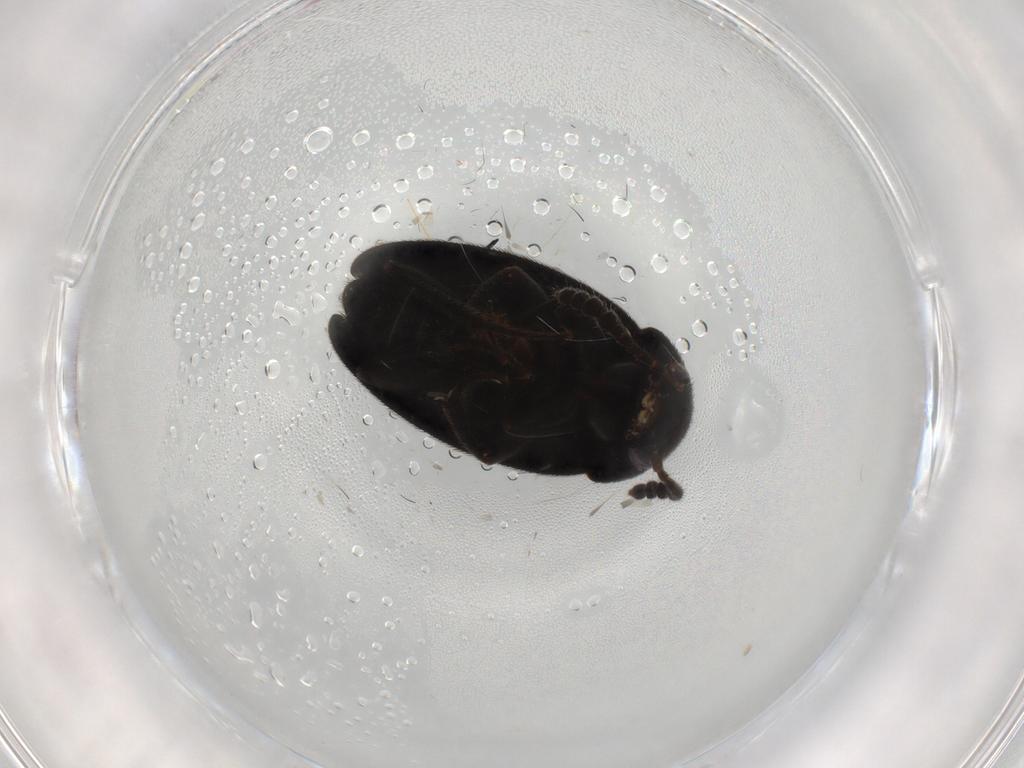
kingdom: Animalia
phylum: Arthropoda
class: Insecta
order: Coleoptera
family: Leiodidae
